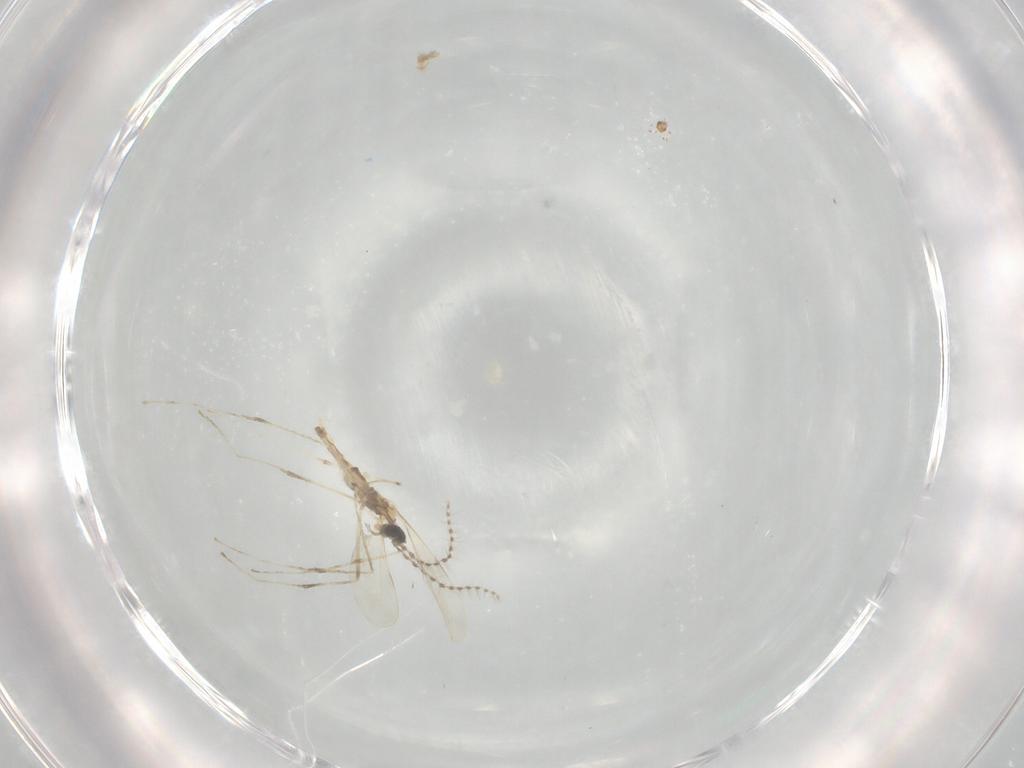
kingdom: Animalia
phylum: Arthropoda
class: Insecta
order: Diptera
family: Cecidomyiidae
